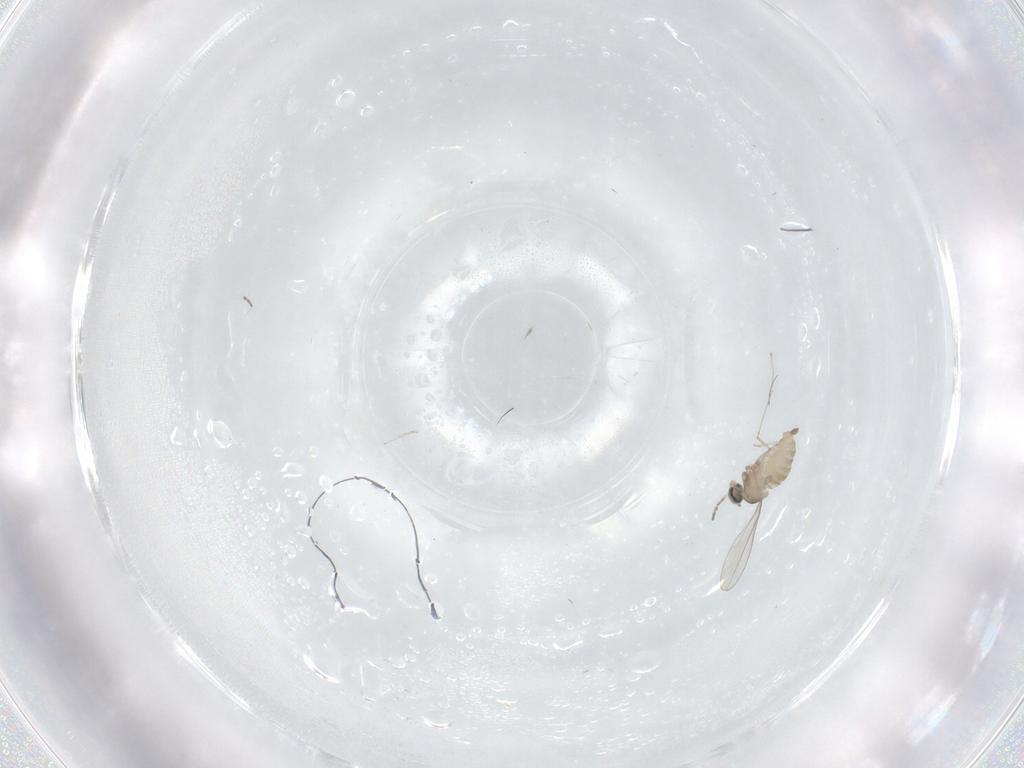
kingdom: Animalia
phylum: Arthropoda
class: Insecta
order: Diptera
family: Cecidomyiidae
